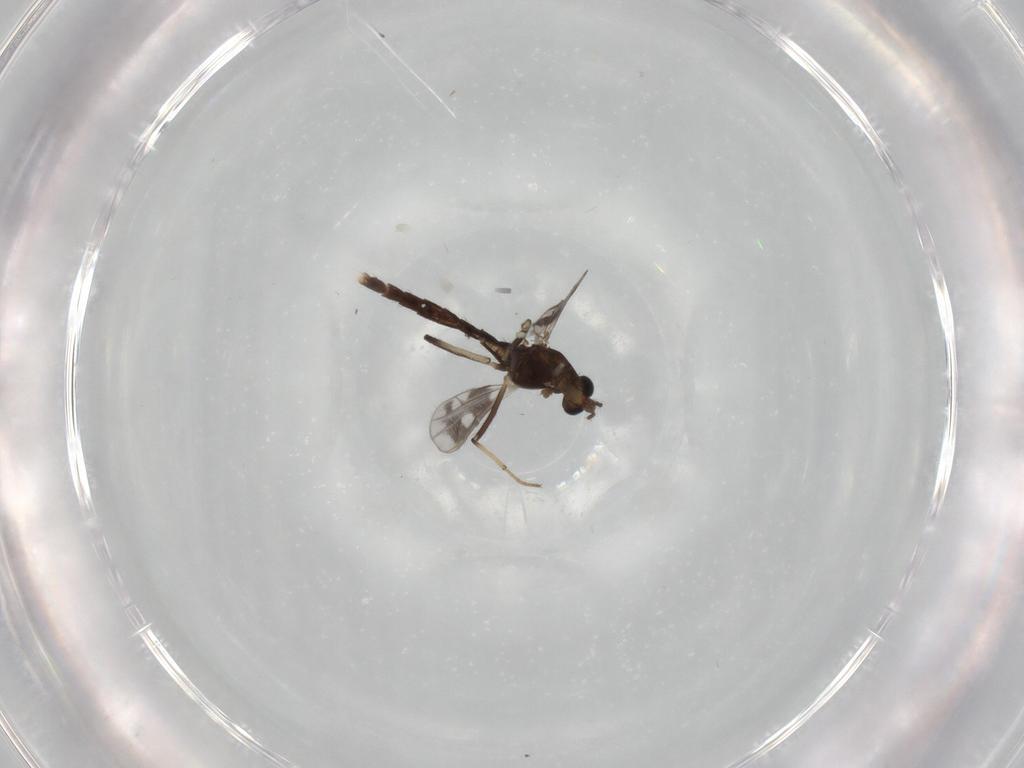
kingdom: Animalia
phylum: Arthropoda
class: Insecta
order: Diptera
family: Chironomidae
